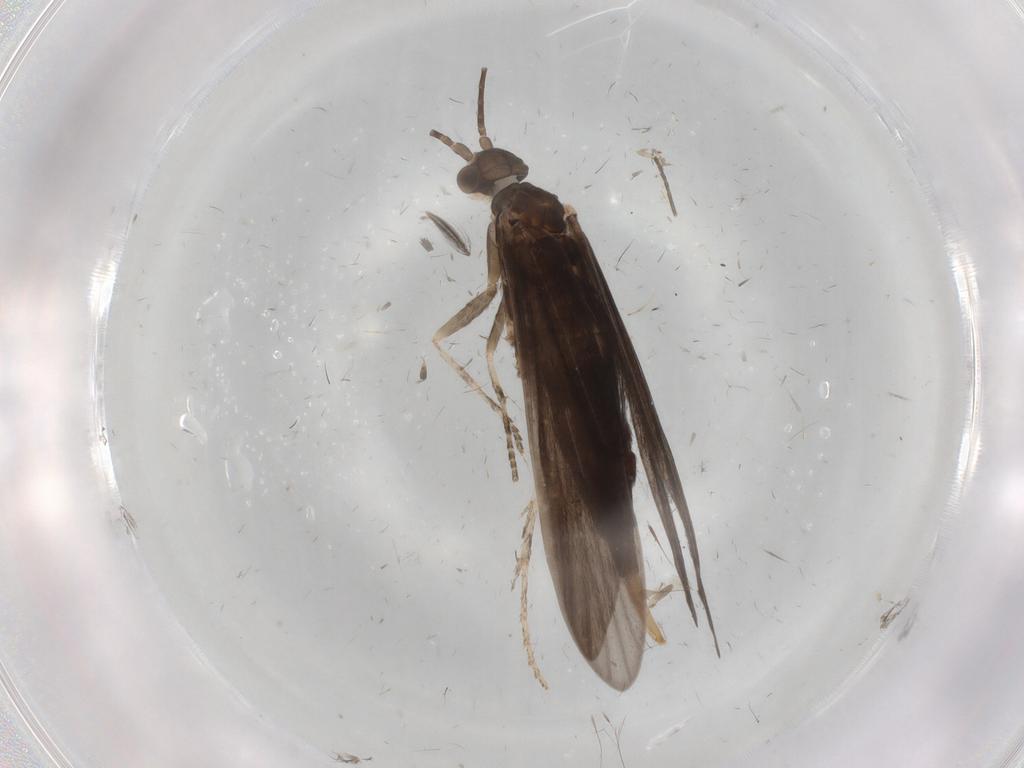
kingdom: Animalia
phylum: Arthropoda
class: Insecta
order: Trichoptera
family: Xiphocentronidae
